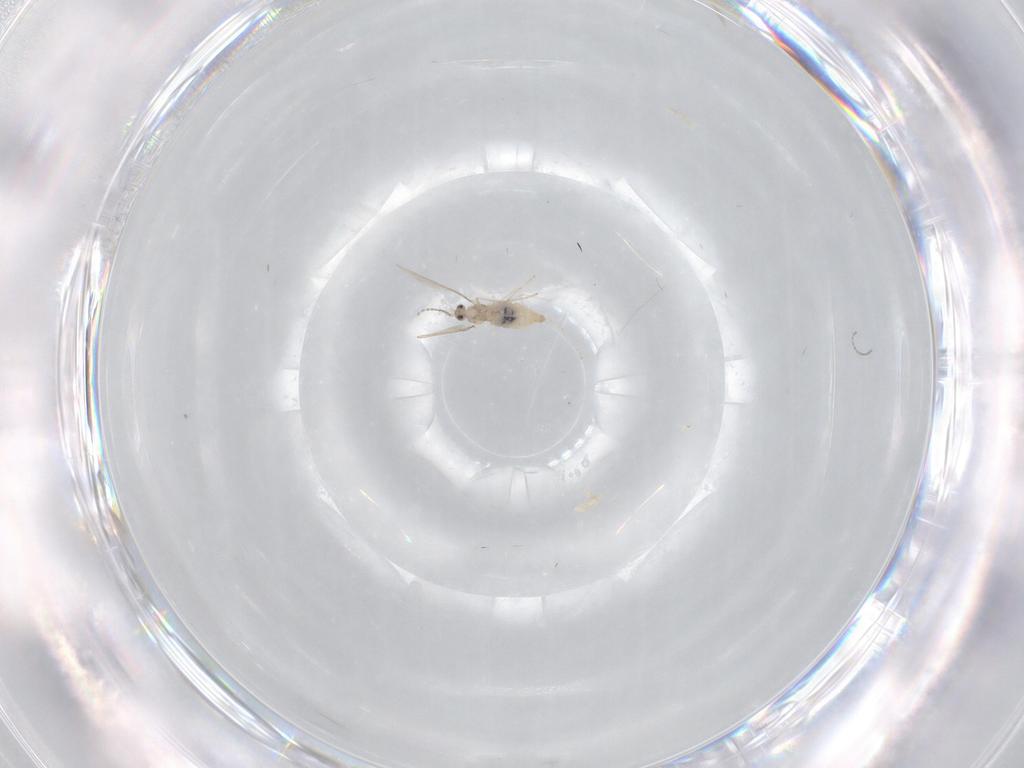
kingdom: Animalia
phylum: Arthropoda
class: Insecta
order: Diptera
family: Cecidomyiidae
